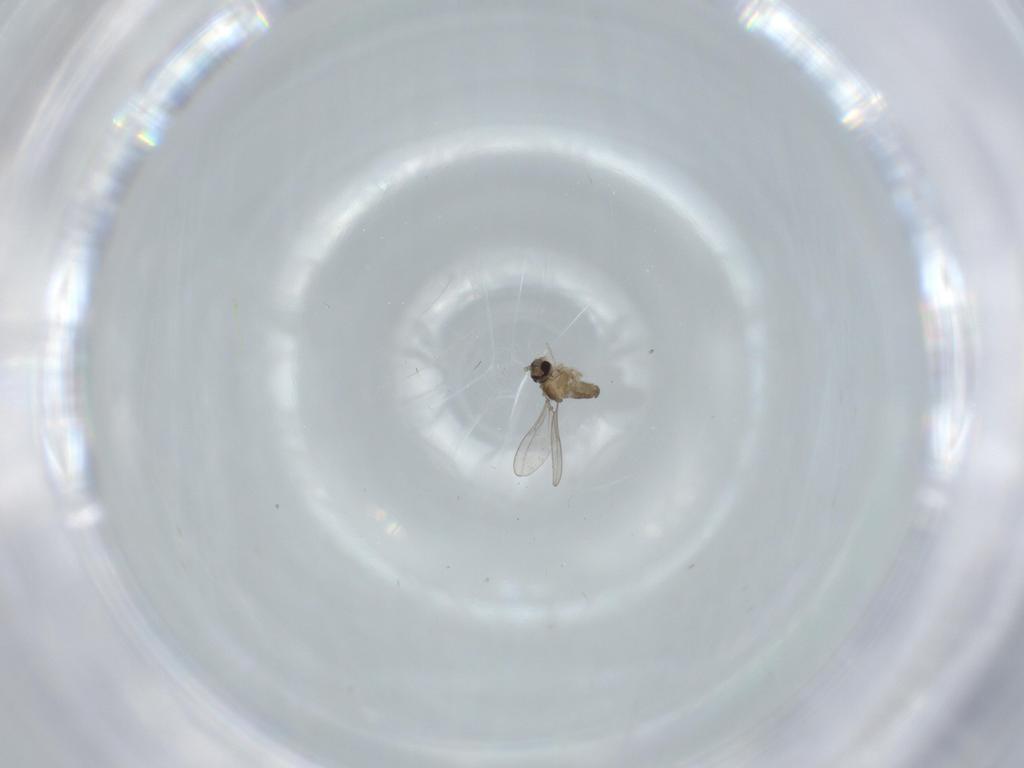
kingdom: Animalia
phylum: Arthropoda
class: Insecta
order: Diptera
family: Cecidomyiidae
